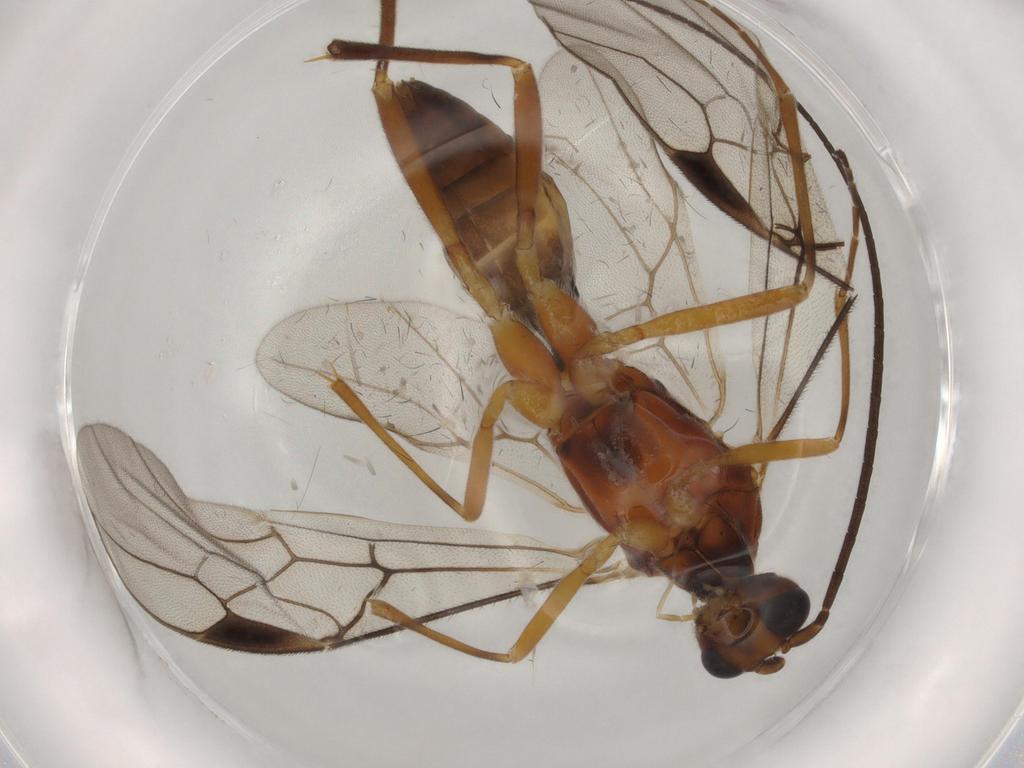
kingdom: Animalia
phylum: Arthropoda
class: Insecta
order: Hymenoptera
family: Braconidae
